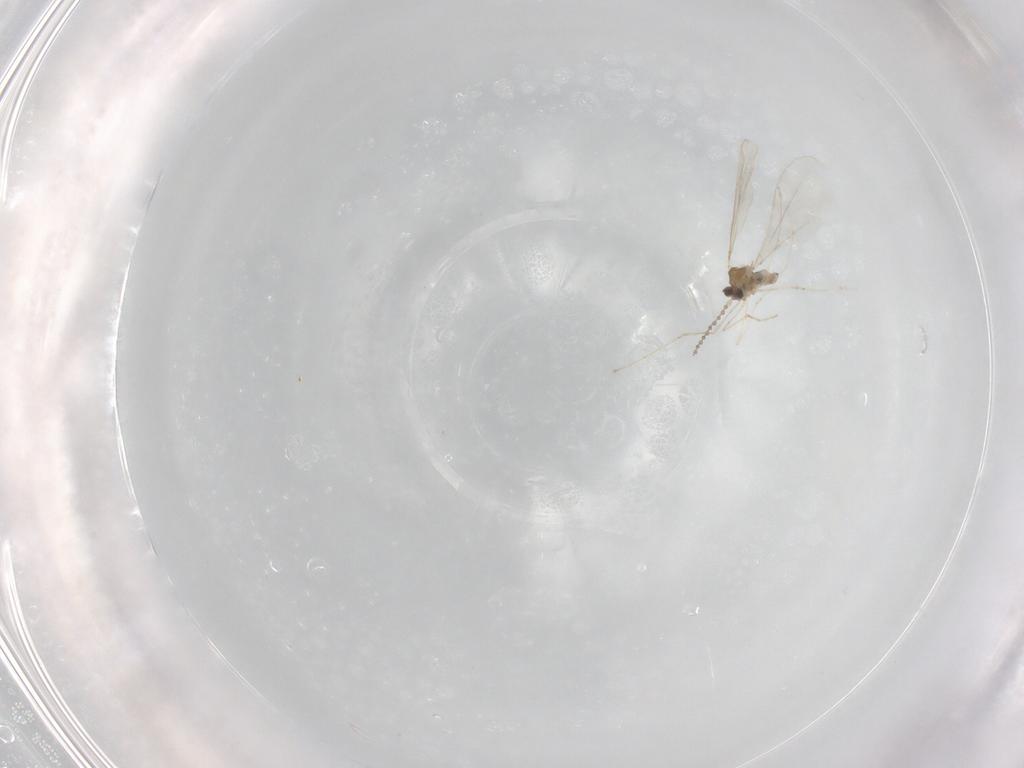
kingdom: Animalia
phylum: Arthropoda
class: Insecta
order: Diptera
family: Cecidomyiidae
